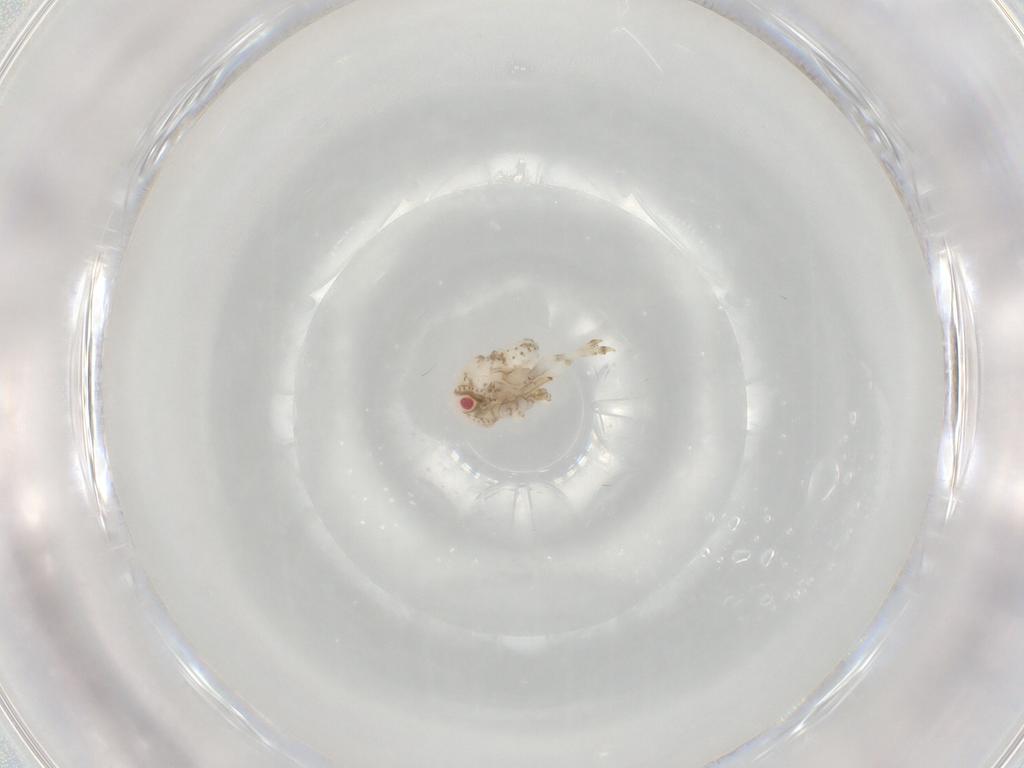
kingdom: Animalia
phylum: Arthropoda
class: Insecta
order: Hemiptera
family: Acanaloniidae
